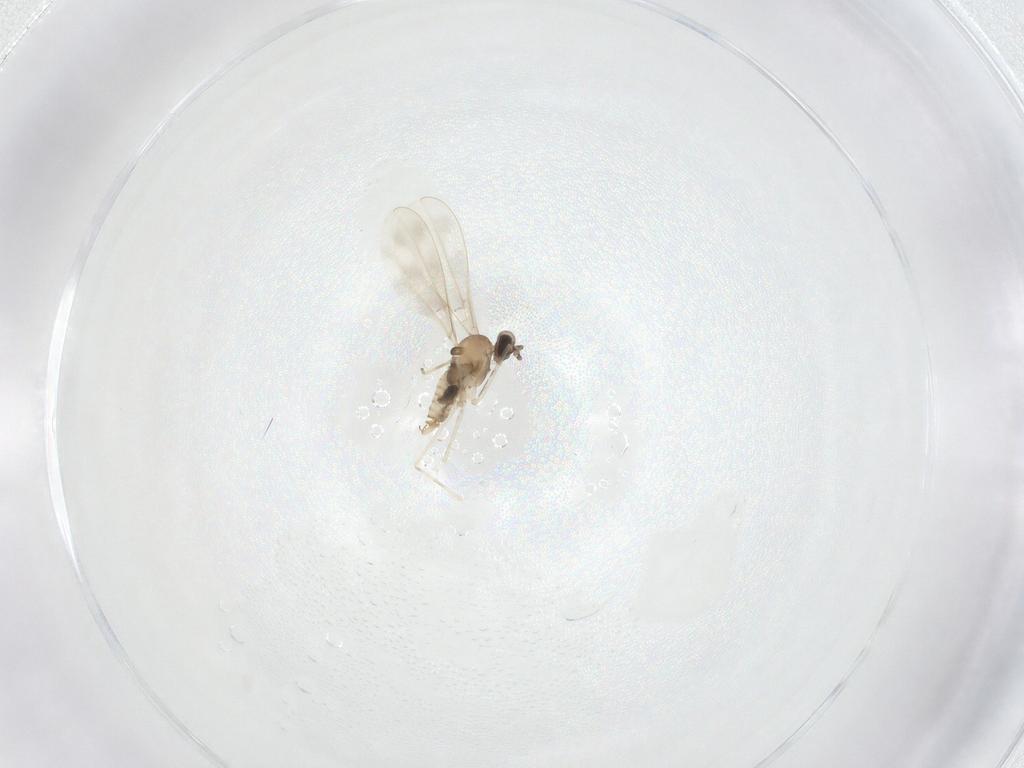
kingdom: Animalia
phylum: Arthropoda
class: Insecta
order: Diptera
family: Cecidomyiidae
